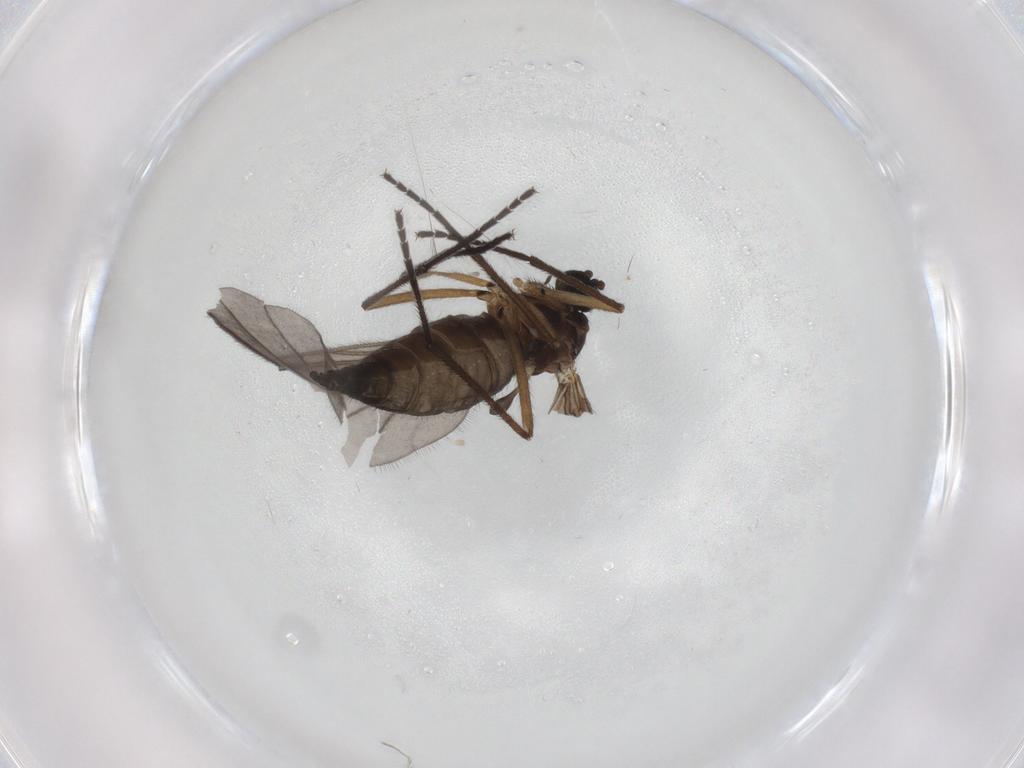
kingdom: Animalia
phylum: Arthropoda
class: Insecta
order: Diptera
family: Sciaridae
